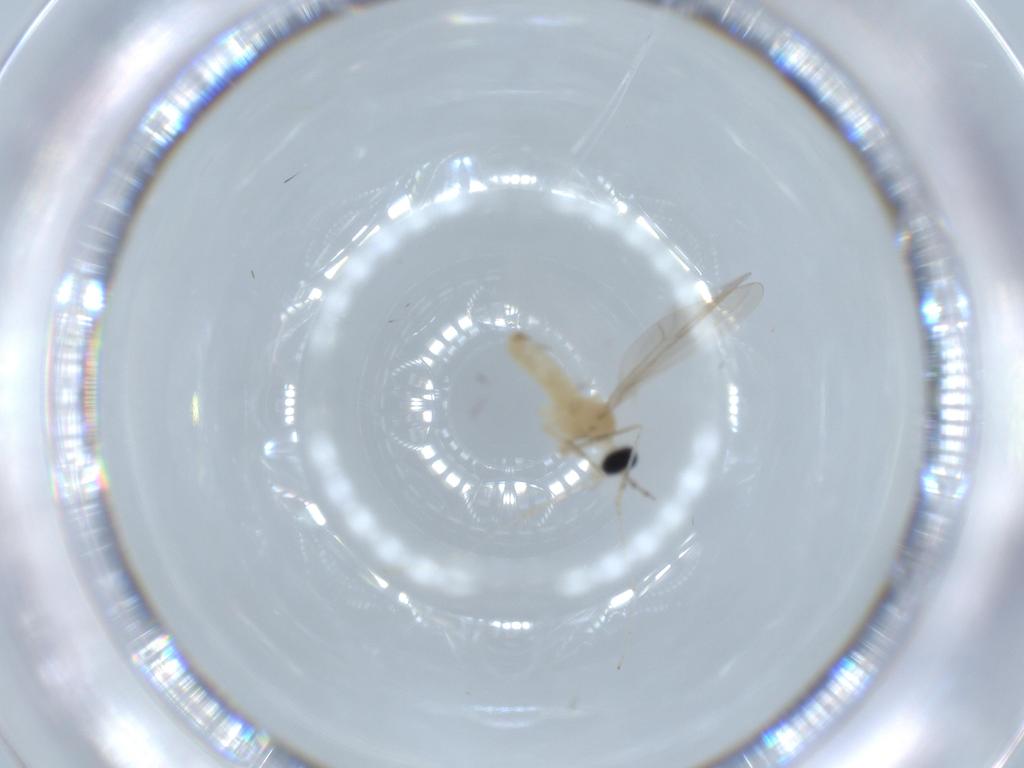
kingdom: Animalia
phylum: Arthropoda
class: Insecta
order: Diptera
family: Cecidomyiidae
